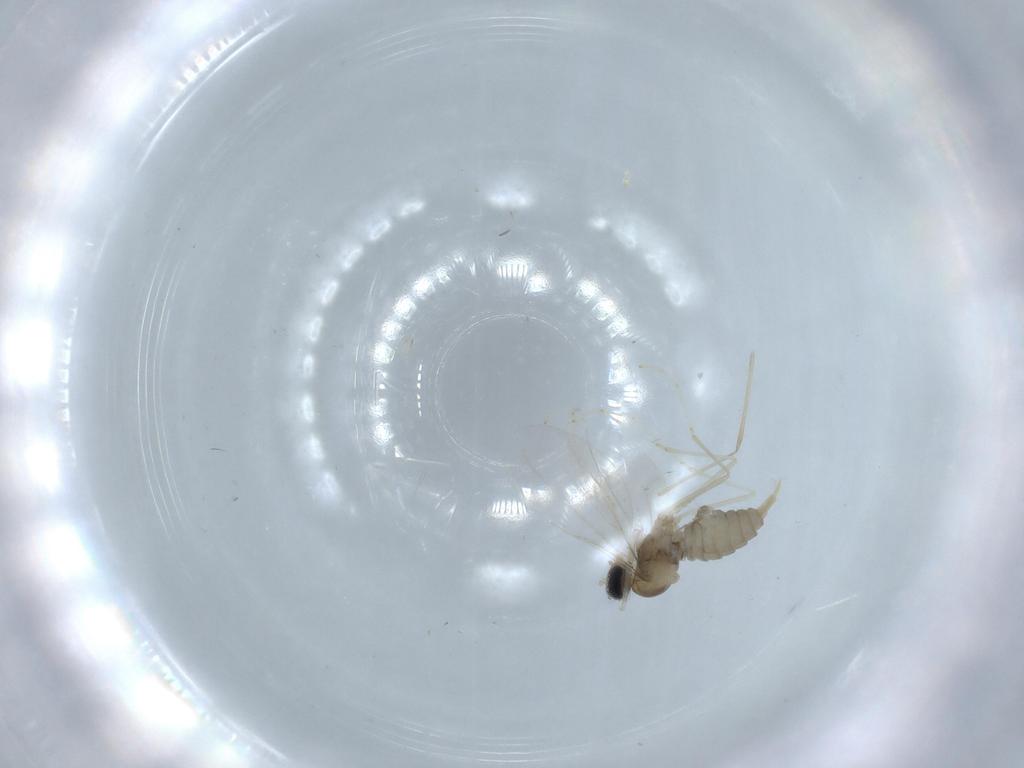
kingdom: Animalia
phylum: Arthropoda
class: Insecta
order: Diptera
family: Cecidomyiidae
